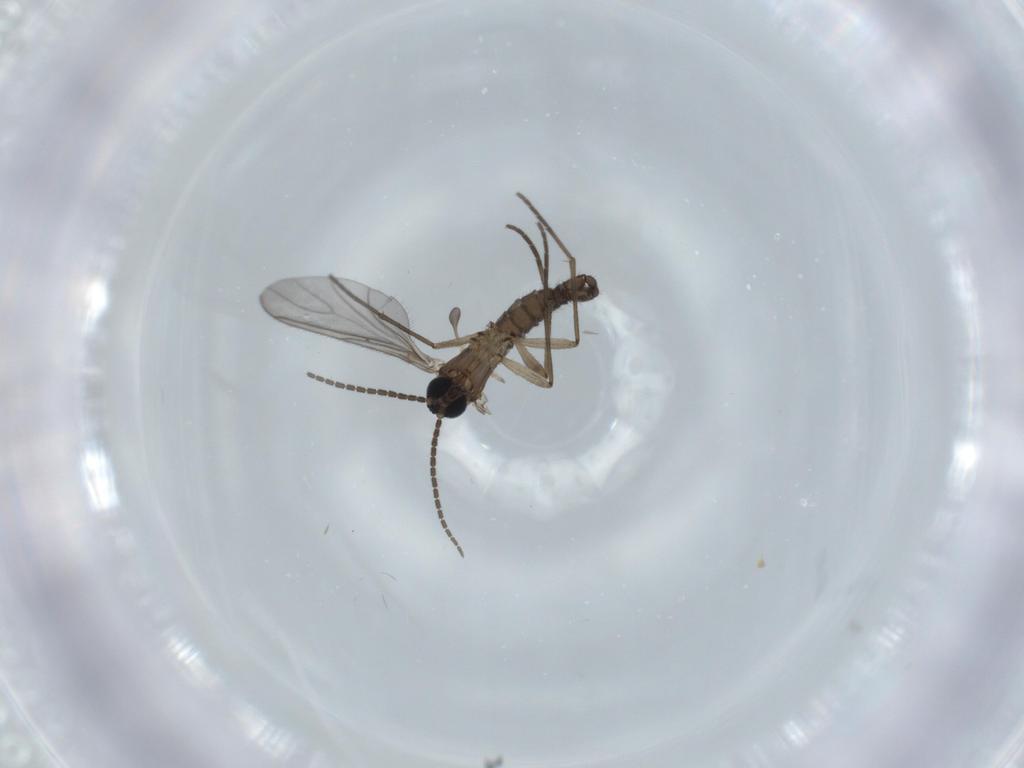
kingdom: Animalia
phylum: Arthropoda
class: Insecta
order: Diptera
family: Sciaridae
